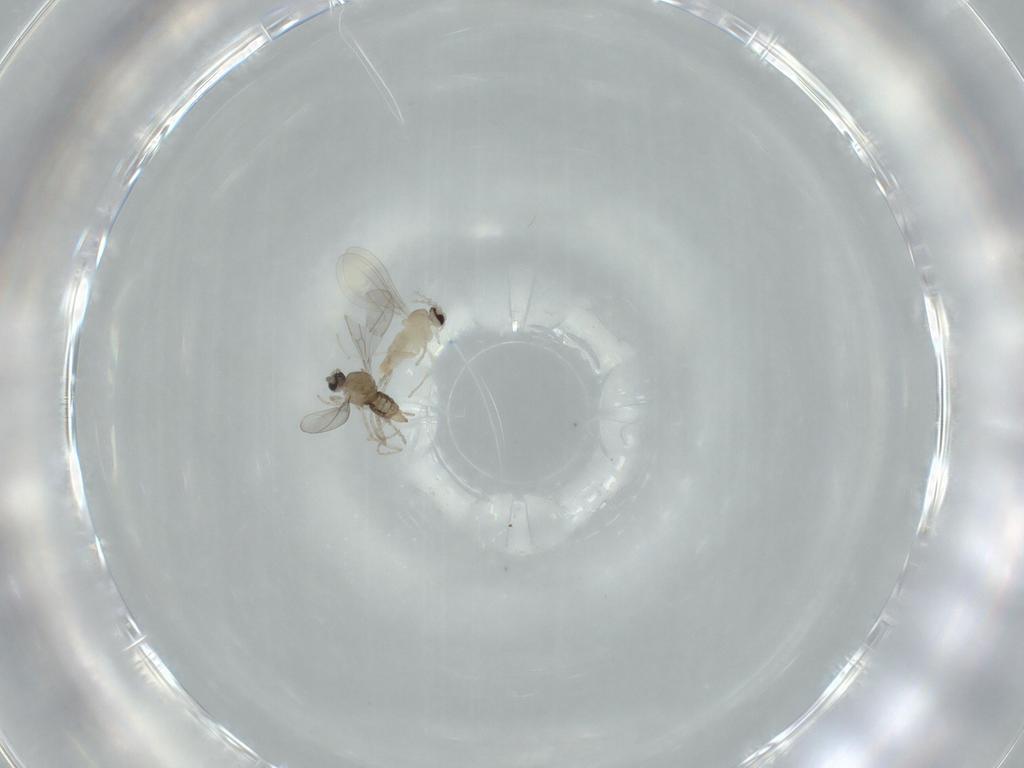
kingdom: Animalia
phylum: Arthropoda
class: Insecta
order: Diptera
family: Cecidomyiidae
